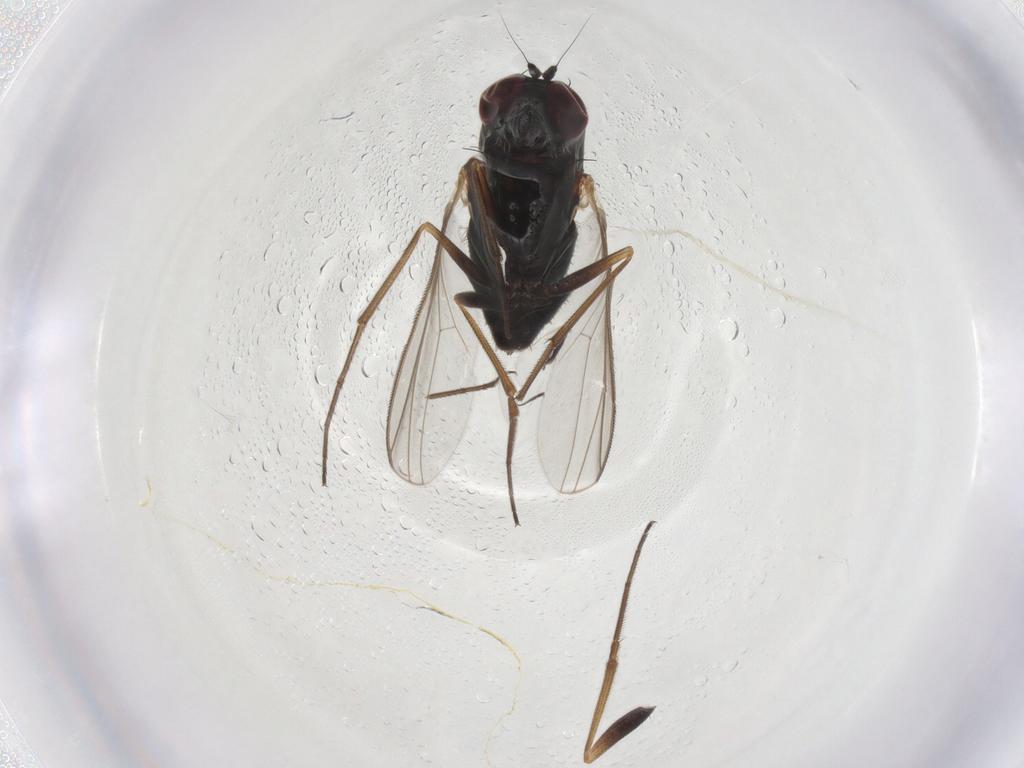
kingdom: Animalia
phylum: Arthropoda
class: Insecta
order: Diptera
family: Dolichopodidae
